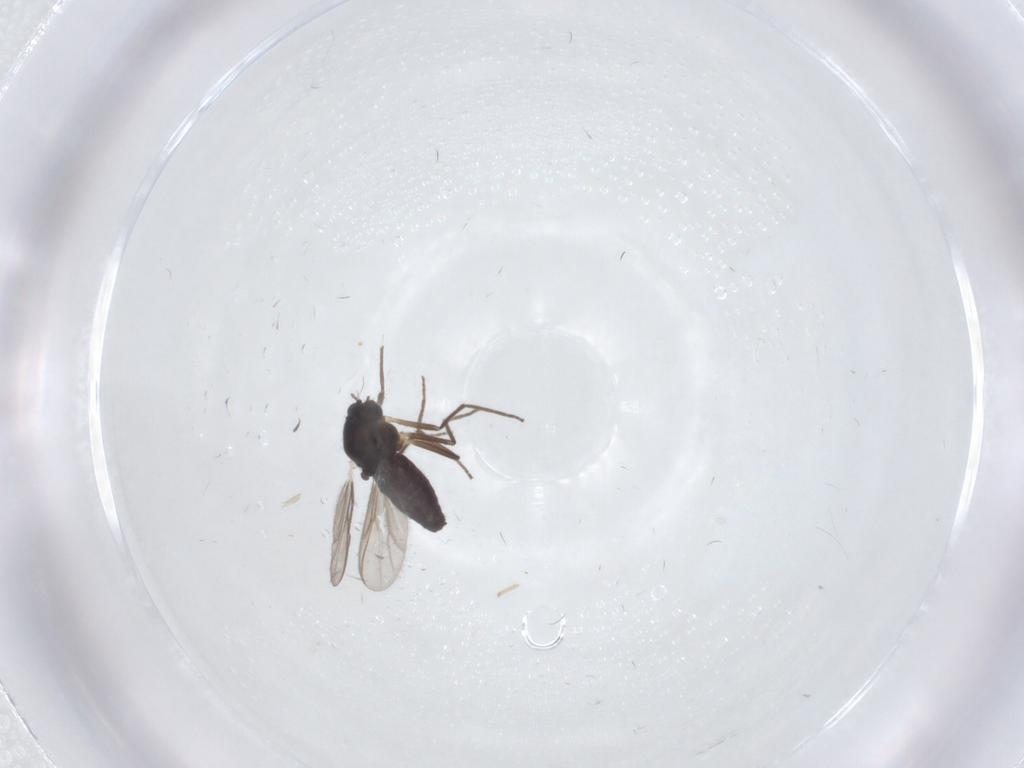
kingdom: Animalia
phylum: Arthropoda
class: Insecta
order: Diptera
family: Chironomidae
